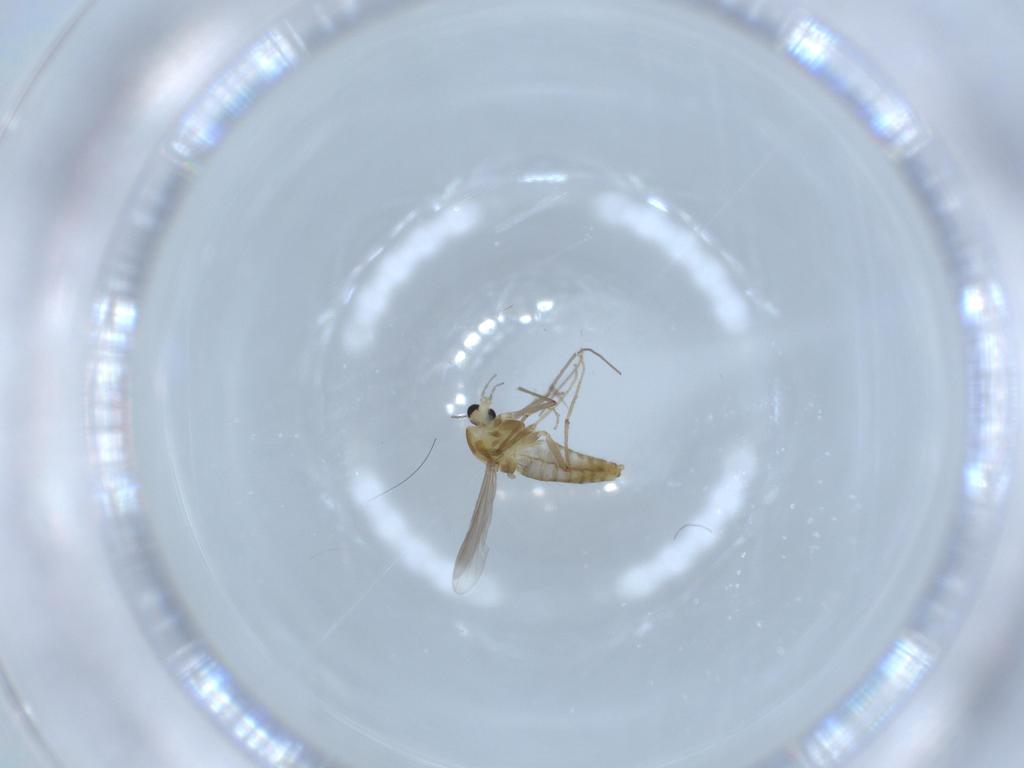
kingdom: Animalia
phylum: Arthropoda
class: Insecta
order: Diptera
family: Chironomidae
